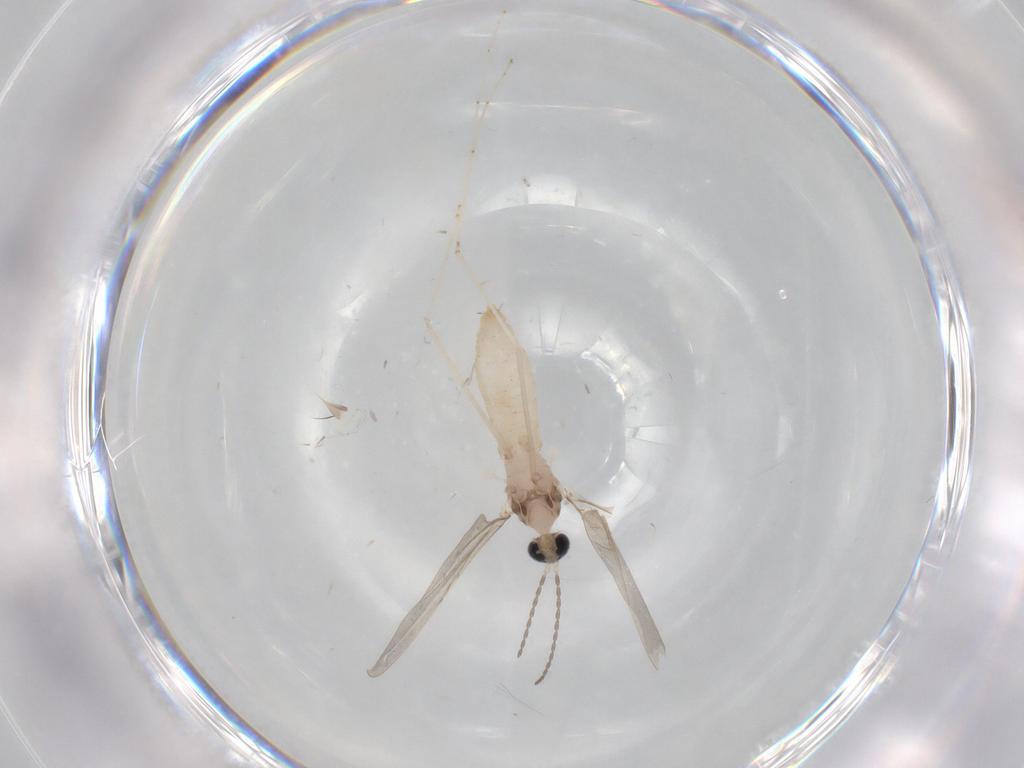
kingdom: Animalia
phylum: Arthropoda
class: Insecta
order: Diptera
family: Cecidomyiidae
